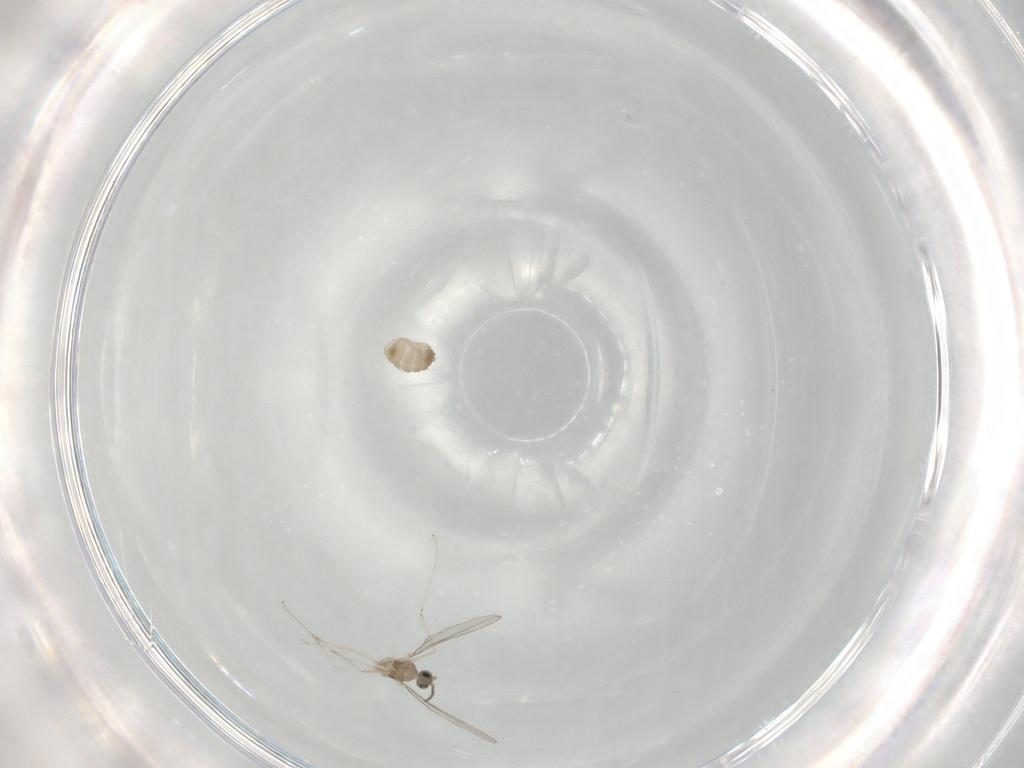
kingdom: Animalia
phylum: Arthropoda
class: Insecta
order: Diptera
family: Cecidomyiidae
